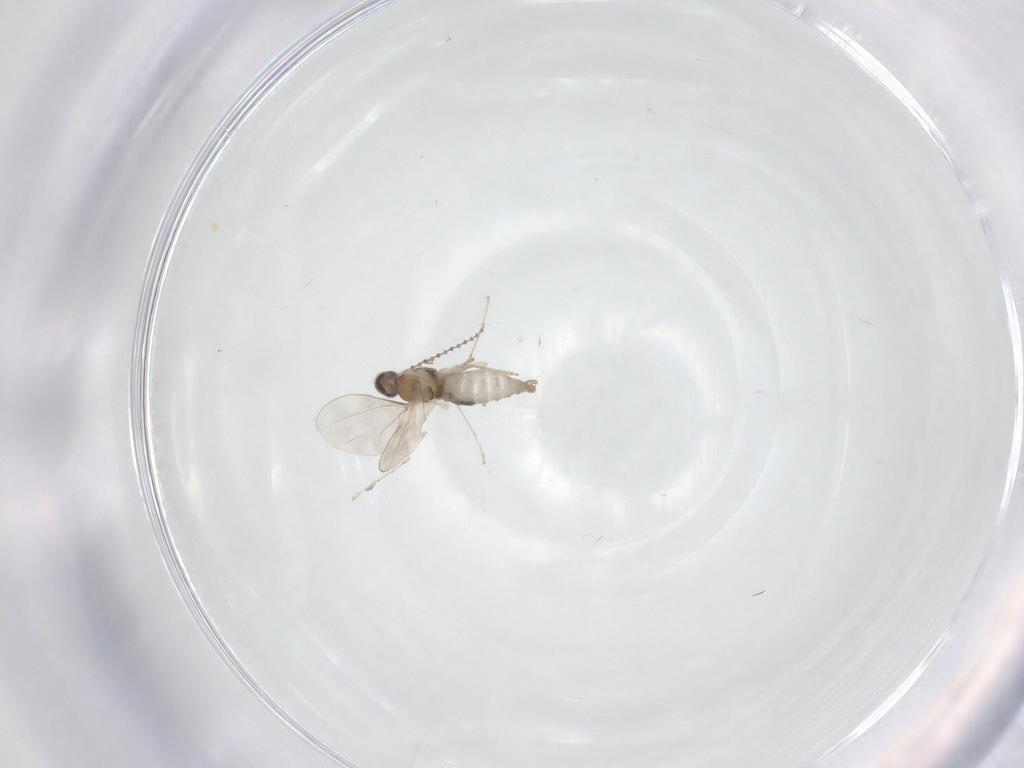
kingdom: Animalia
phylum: Arthropoda
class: Insecta
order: Diptera
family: Cecidomyiidae
